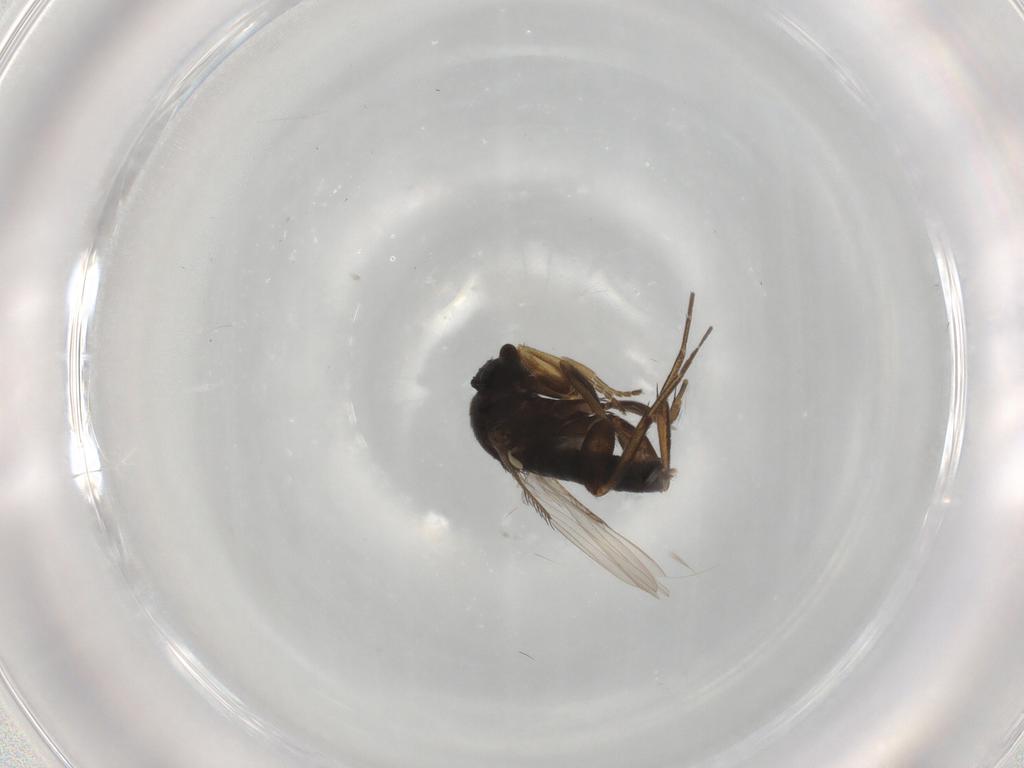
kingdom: Animalia
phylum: Arthropoda
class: Insecta
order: Diptera
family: Phoridae
